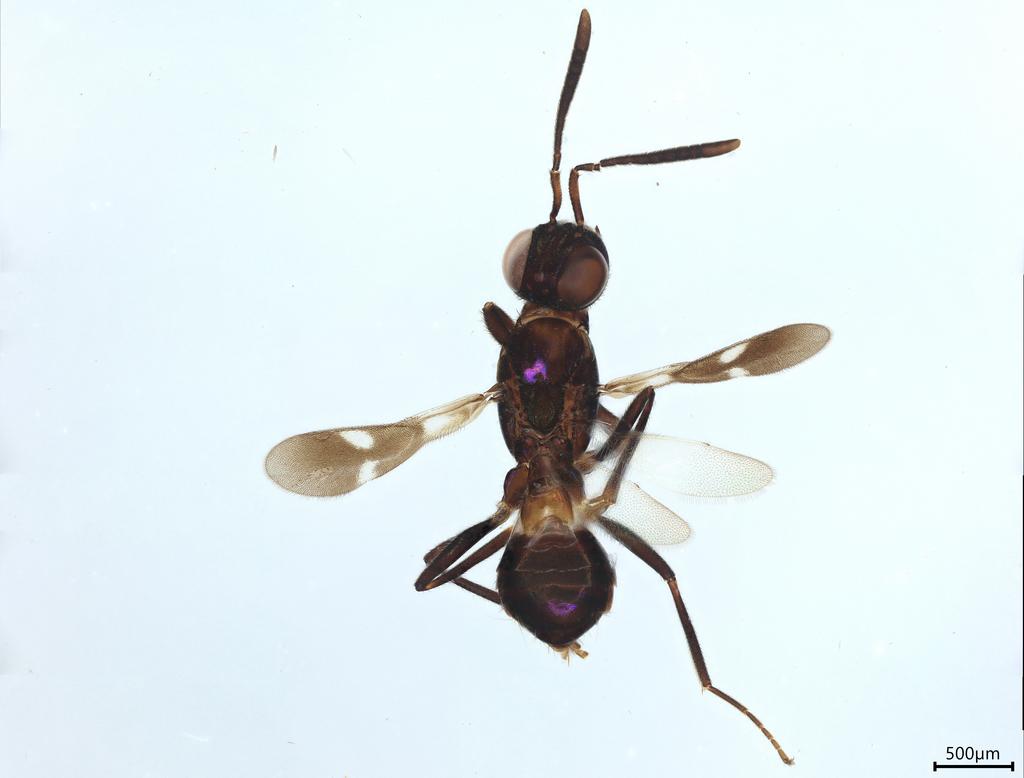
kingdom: Animalia
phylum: Arthropoda
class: Insecta
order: Hymenoptera
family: Eupelmidae
